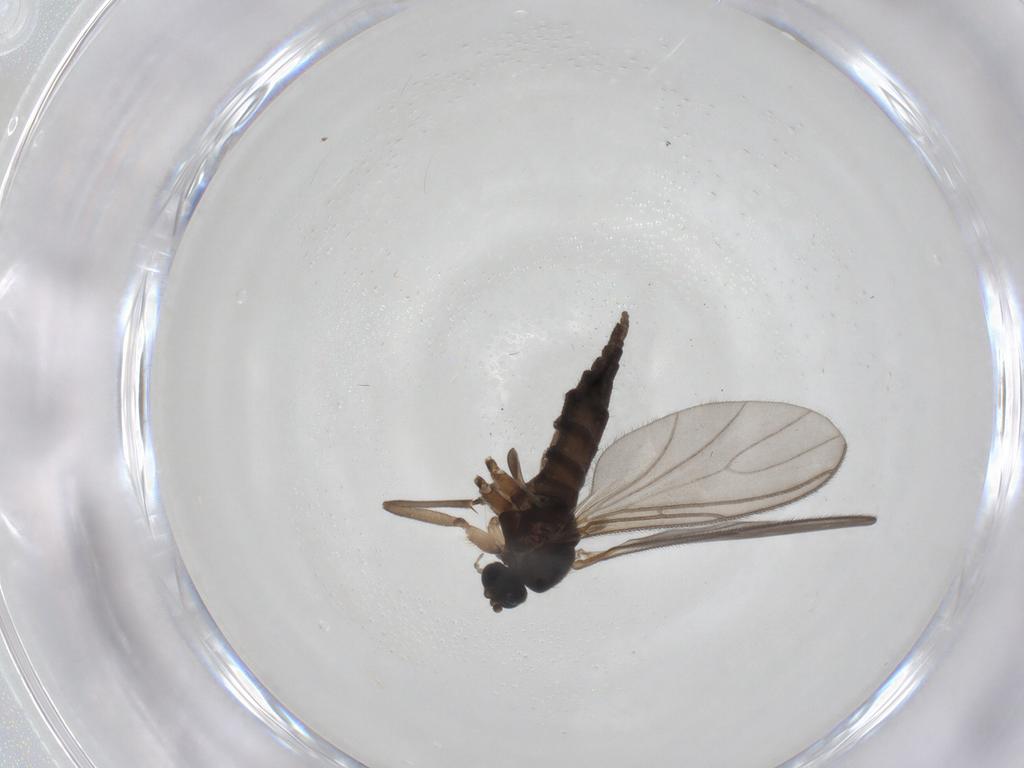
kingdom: Animalia
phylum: Arthropoda
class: Insecta
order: Diptera
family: Sciaridae
